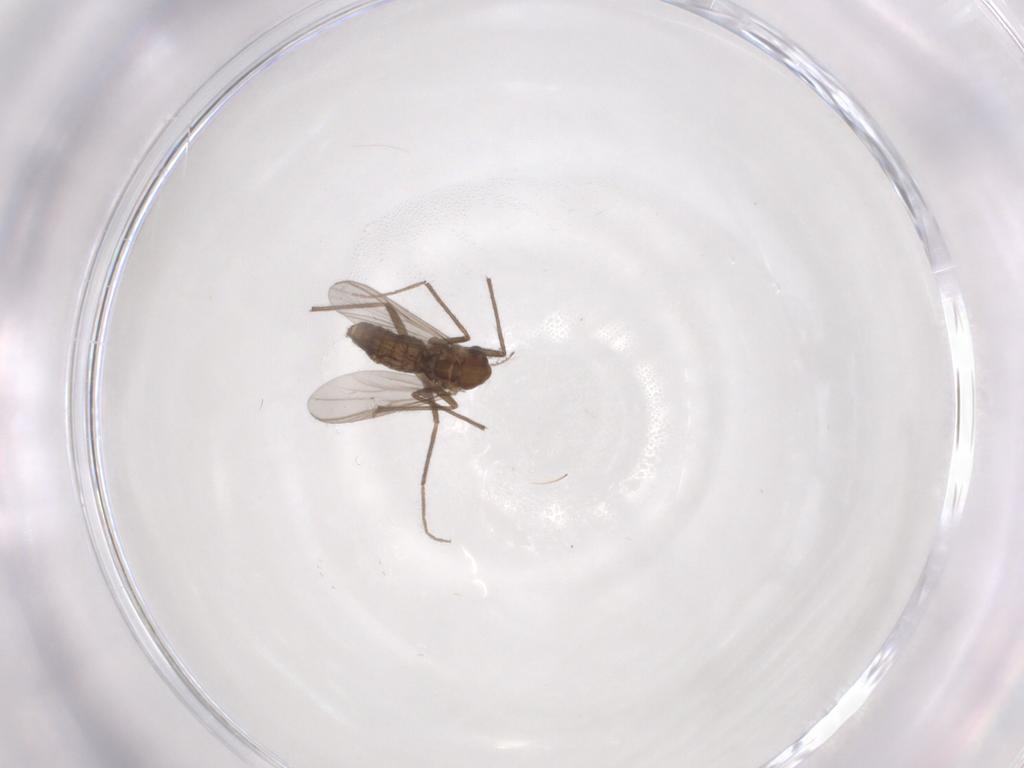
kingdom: Animalia
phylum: Arthropoda
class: Insecta
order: Diptera
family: Chironomidae
